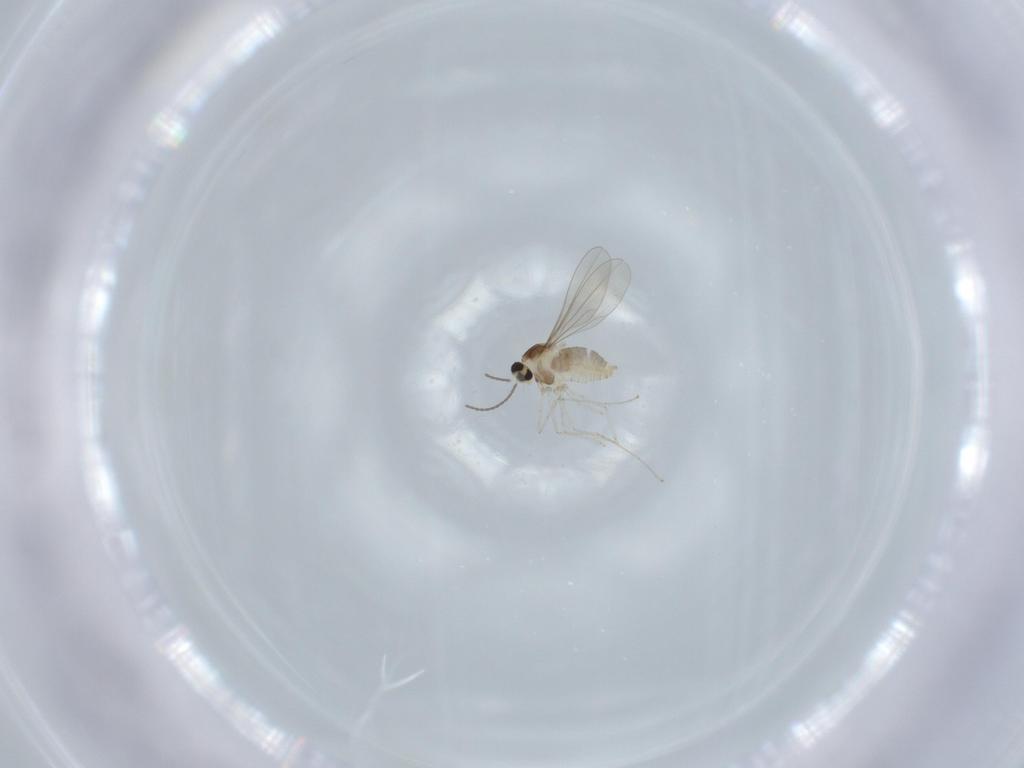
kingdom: Animalia
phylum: Arthropoda
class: Insecta
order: Diptera
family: Cecidomyiidae
